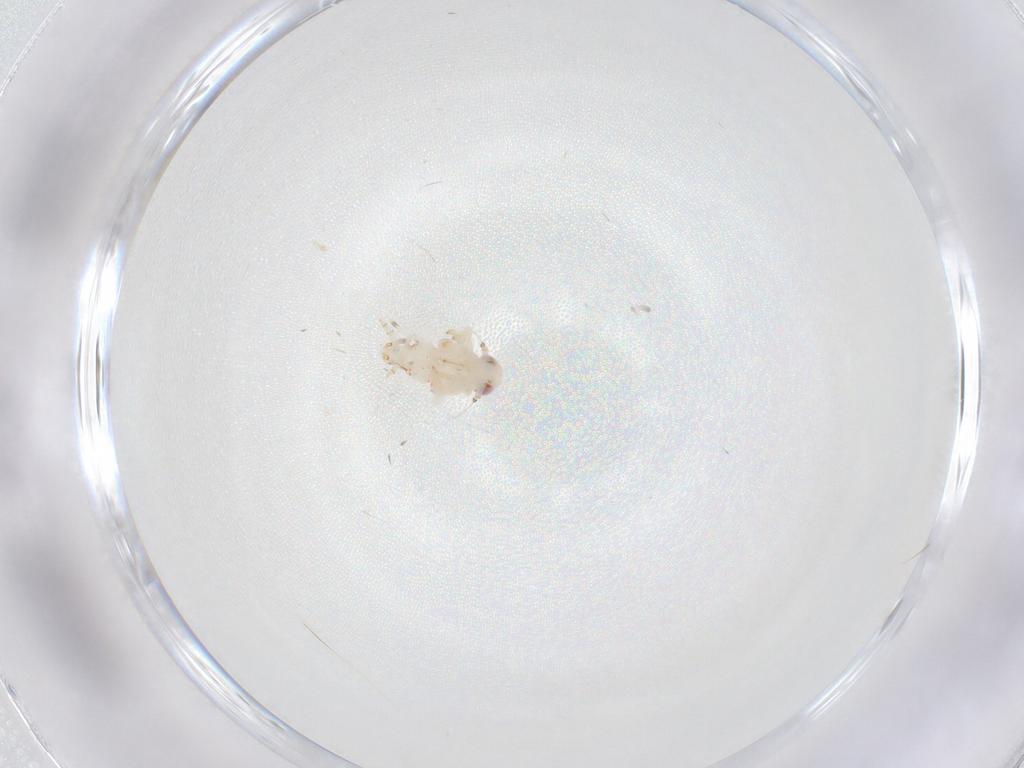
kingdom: Animalia
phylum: Arthropoda
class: Insecta
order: Hemiptera
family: Nogodinidae
